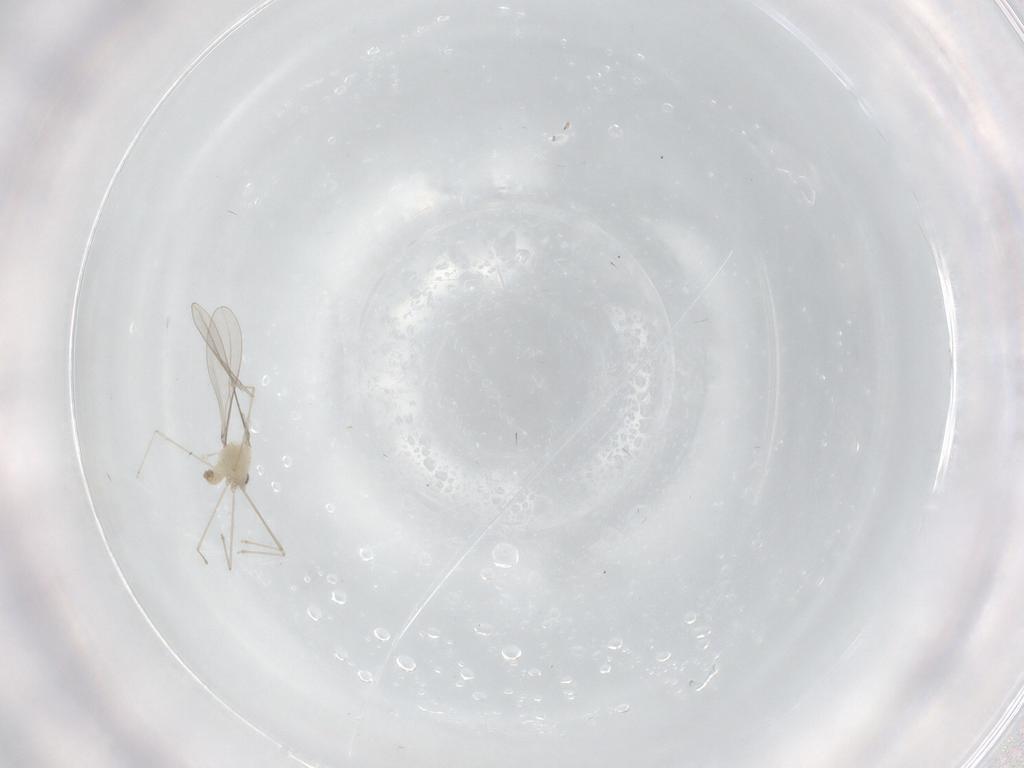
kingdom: Animalia
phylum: Arthropoda
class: Insecta
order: Diptera
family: Cecidomyiidae
